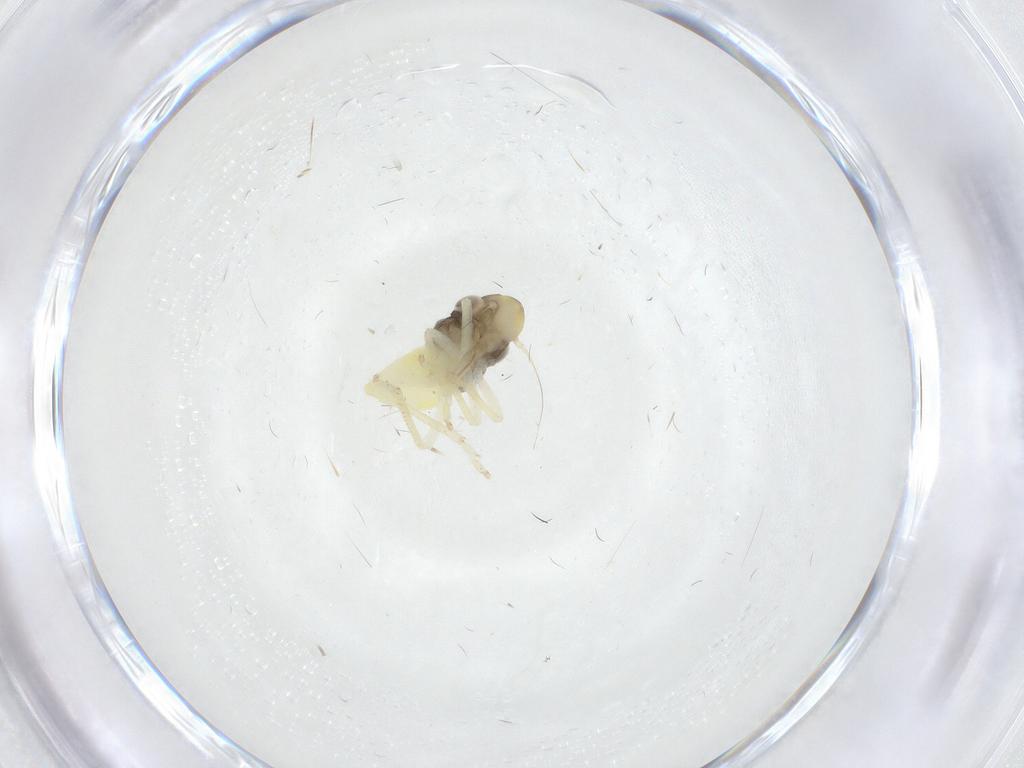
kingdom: Animalia
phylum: Arthropoda
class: Insecta
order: Hemiptera
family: Cicadellidae
